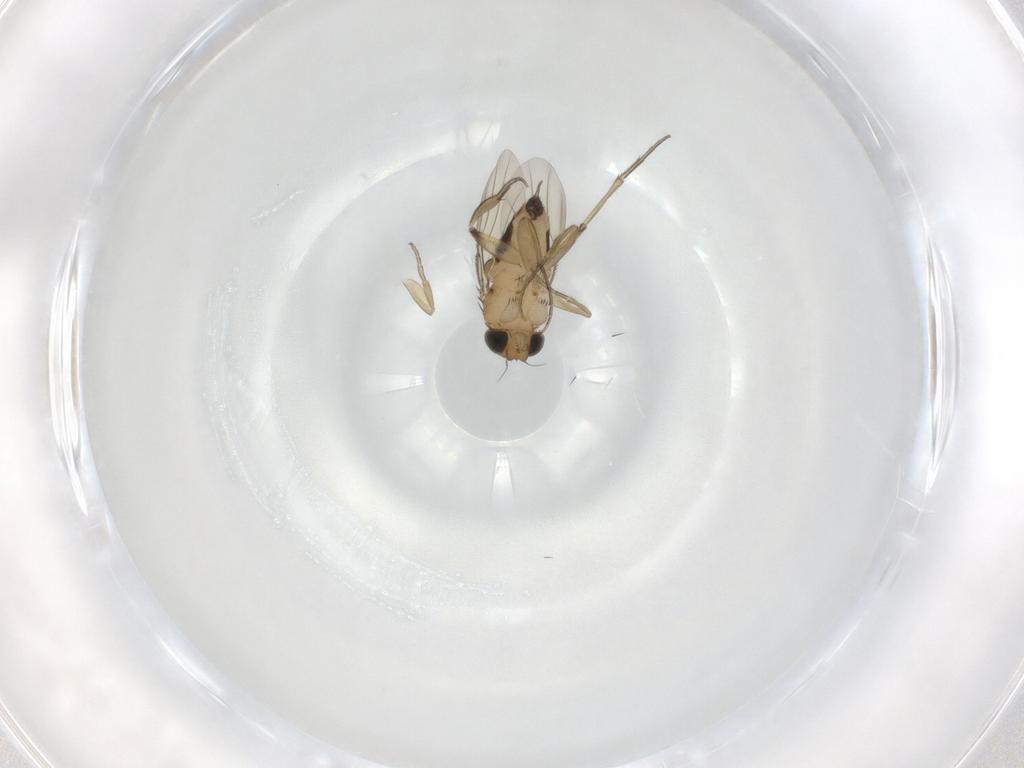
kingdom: Animalia
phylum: Arthropoda
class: Insecta
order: Diptera
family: Phoridae
